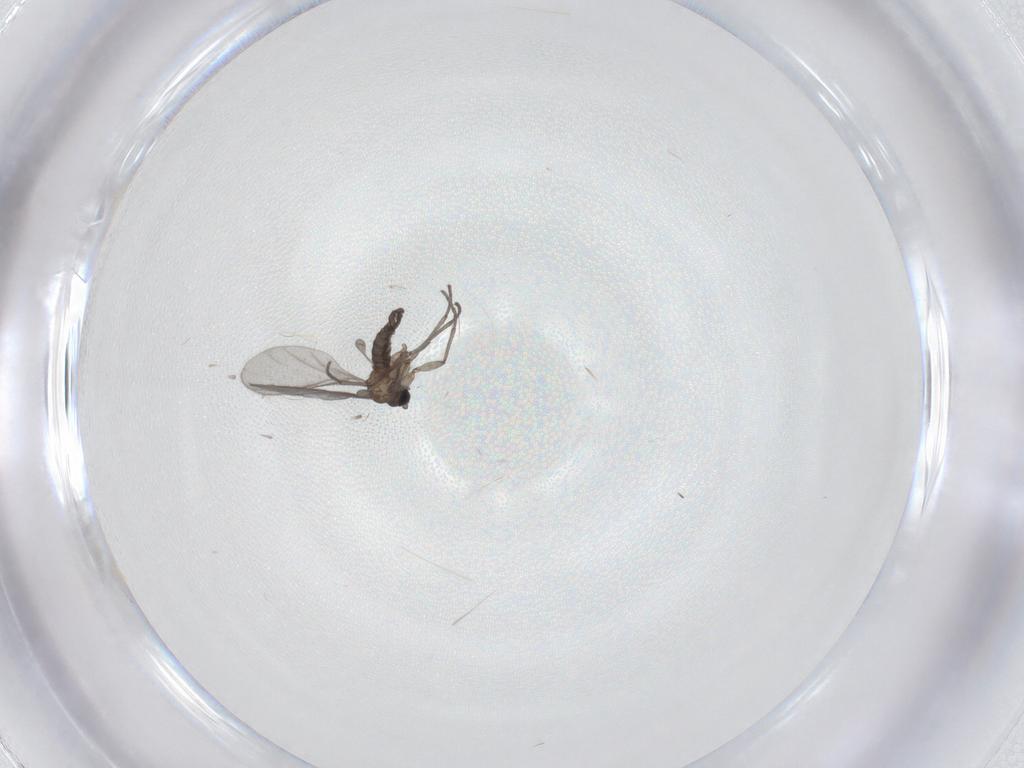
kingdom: Animalia
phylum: Arthropoda
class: Insecta
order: Diptera
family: Sciaridae
